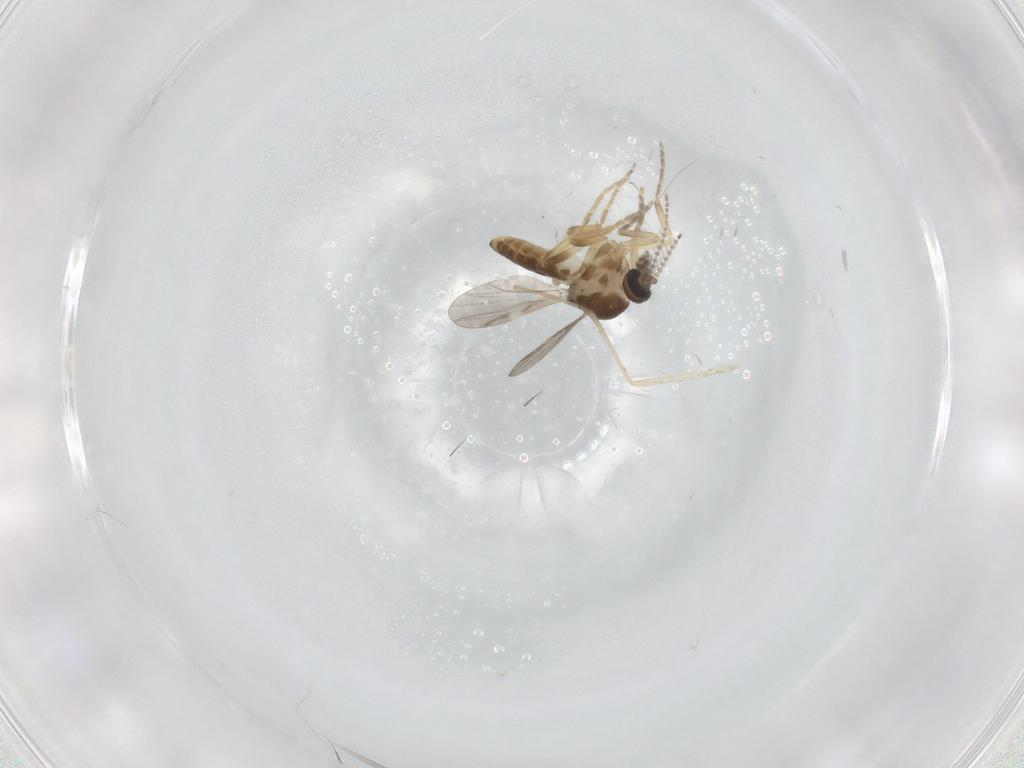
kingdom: Animalia
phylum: Arthropoda
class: Insecta
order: Diptera
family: Ceratopogonidae
